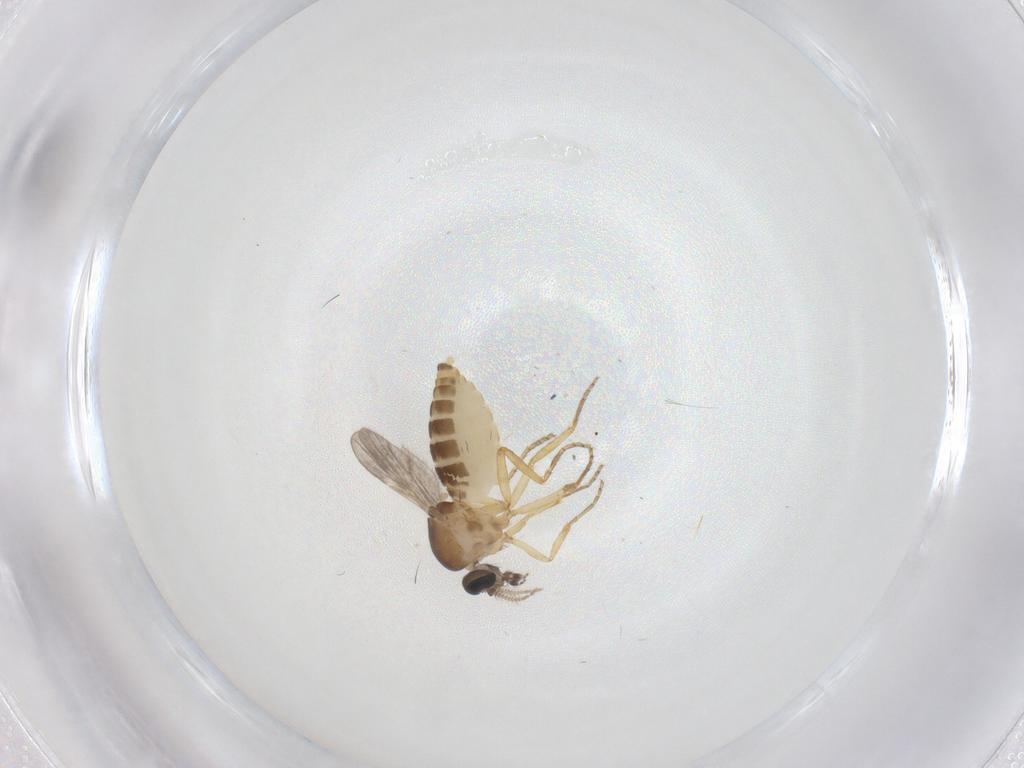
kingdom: Animalia
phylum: Arthropoda
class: Insecta
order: Diptera
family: Ceratopogonidae
